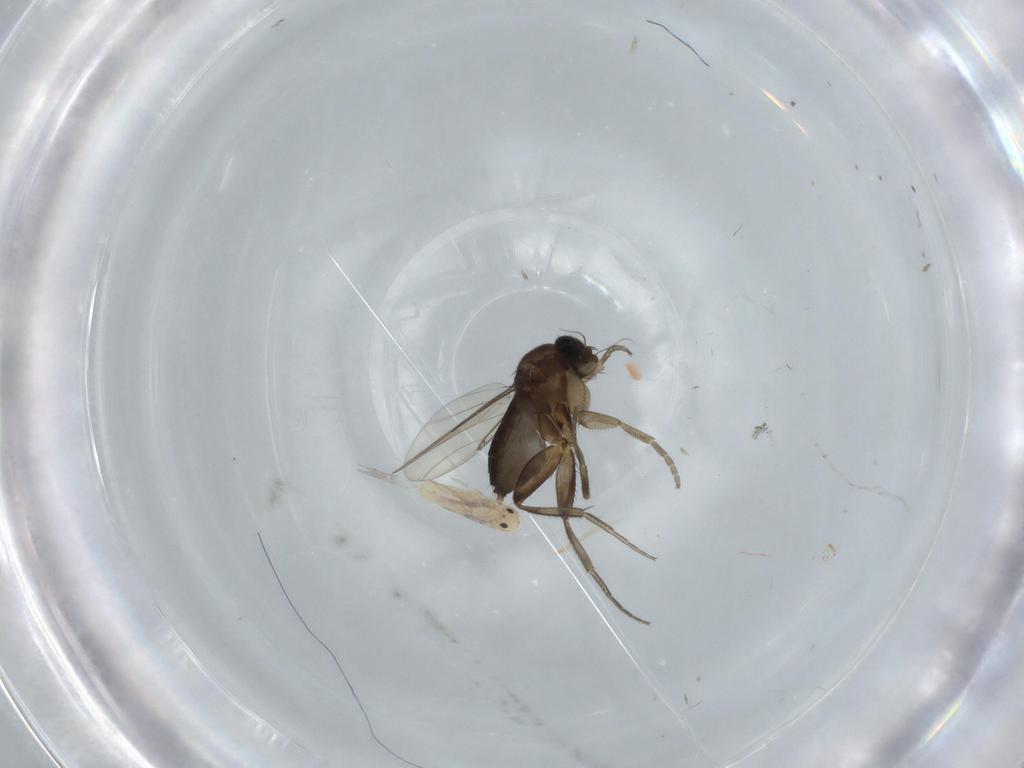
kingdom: Animalia
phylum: Arthropoda
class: Insecta
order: Diptera
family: Phoridae
